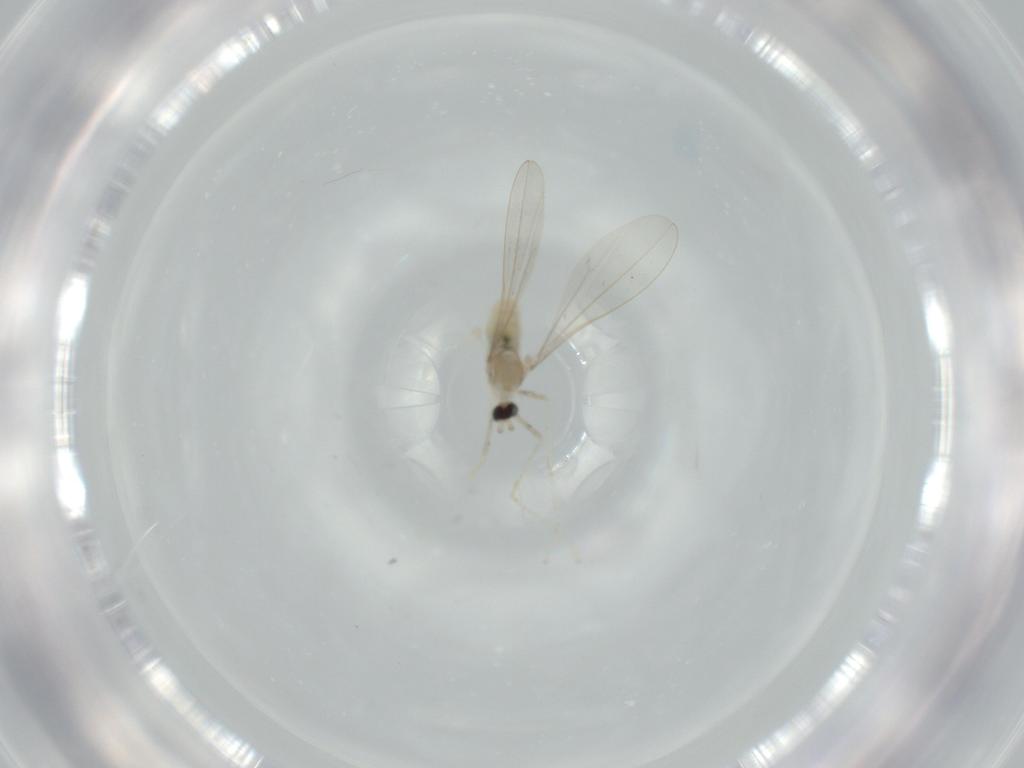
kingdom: Animalia
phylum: Arthropoda
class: Insecta
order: Diptera
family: Cecidomyiidae
